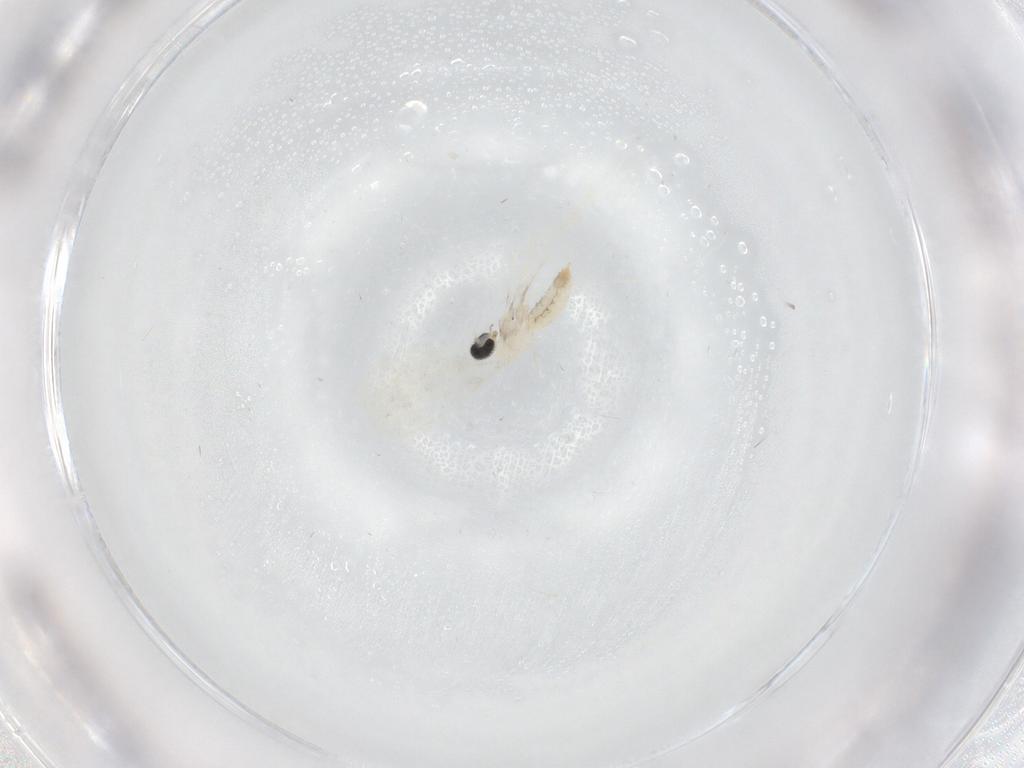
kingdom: Animalia
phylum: Arthropoda
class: Insecta
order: Diptera
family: Cecidomyiidae
